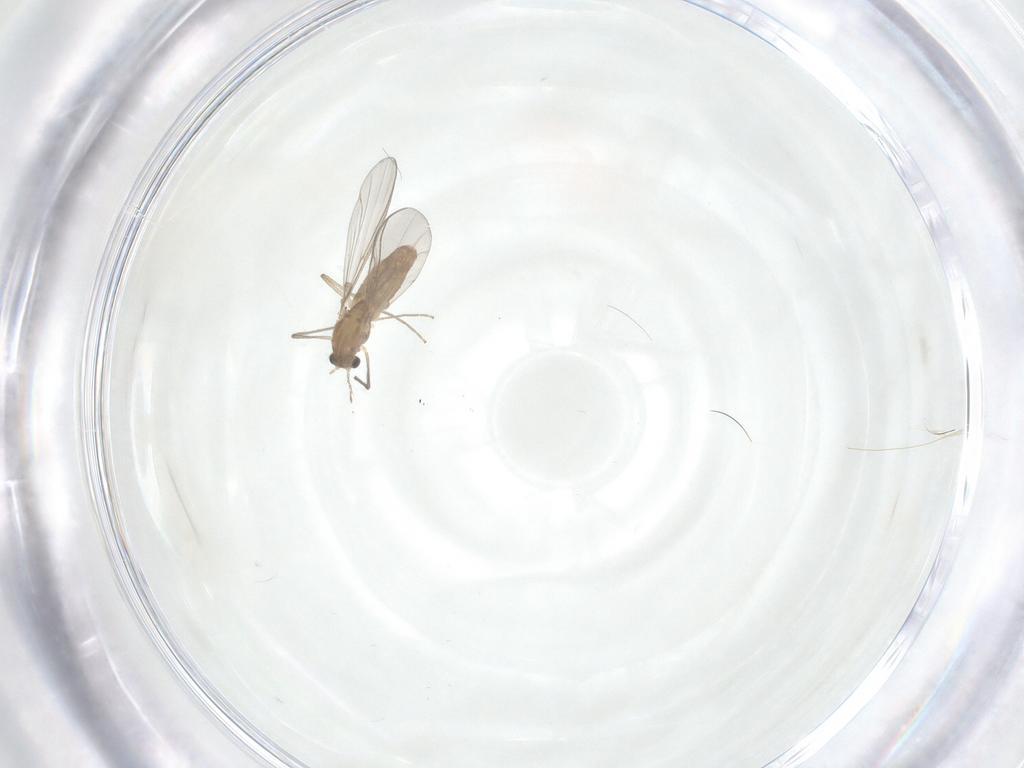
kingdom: Animalia
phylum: Arthropoda
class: Insecta
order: Diptera
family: Chironomidae
